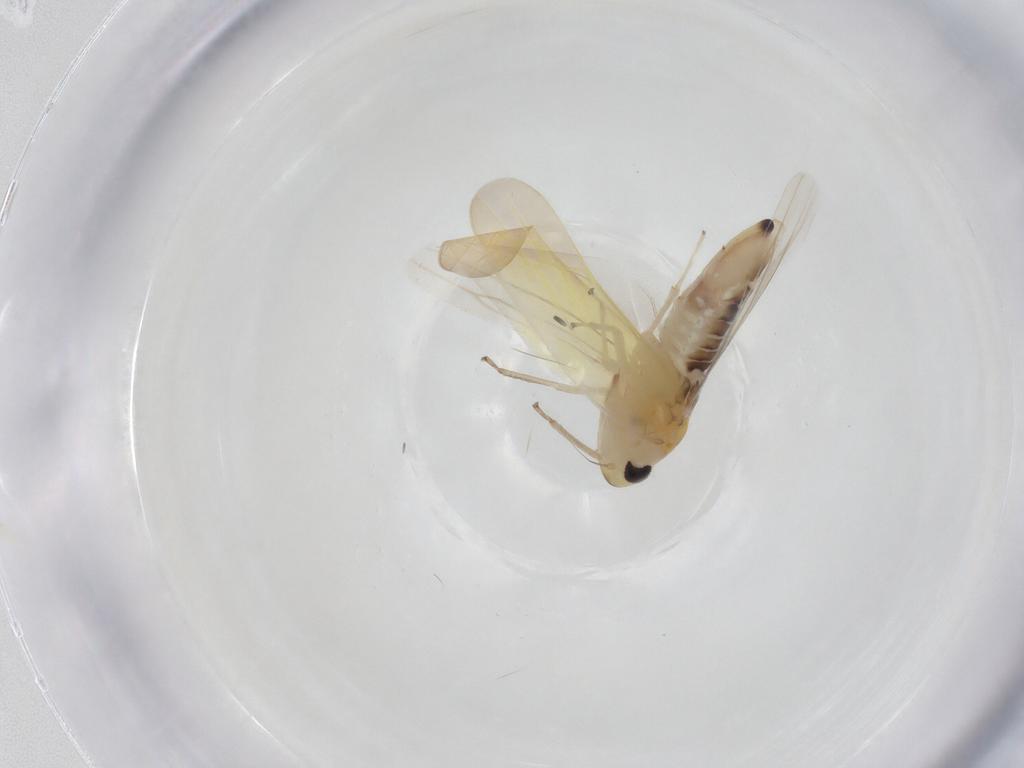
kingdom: Animalia
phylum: Arthropoda
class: Insecta
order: Hemiptera
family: Cicadellidae
